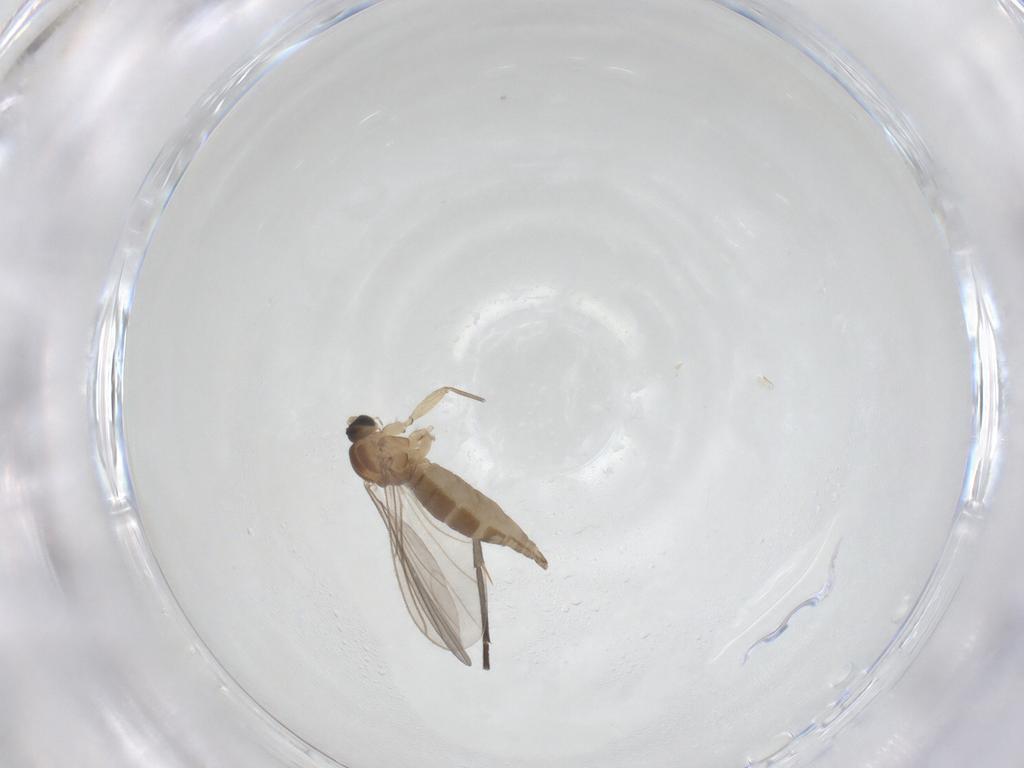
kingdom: Animalia
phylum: Arthropoda
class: Insecta
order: Diptera
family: Sciaridae
